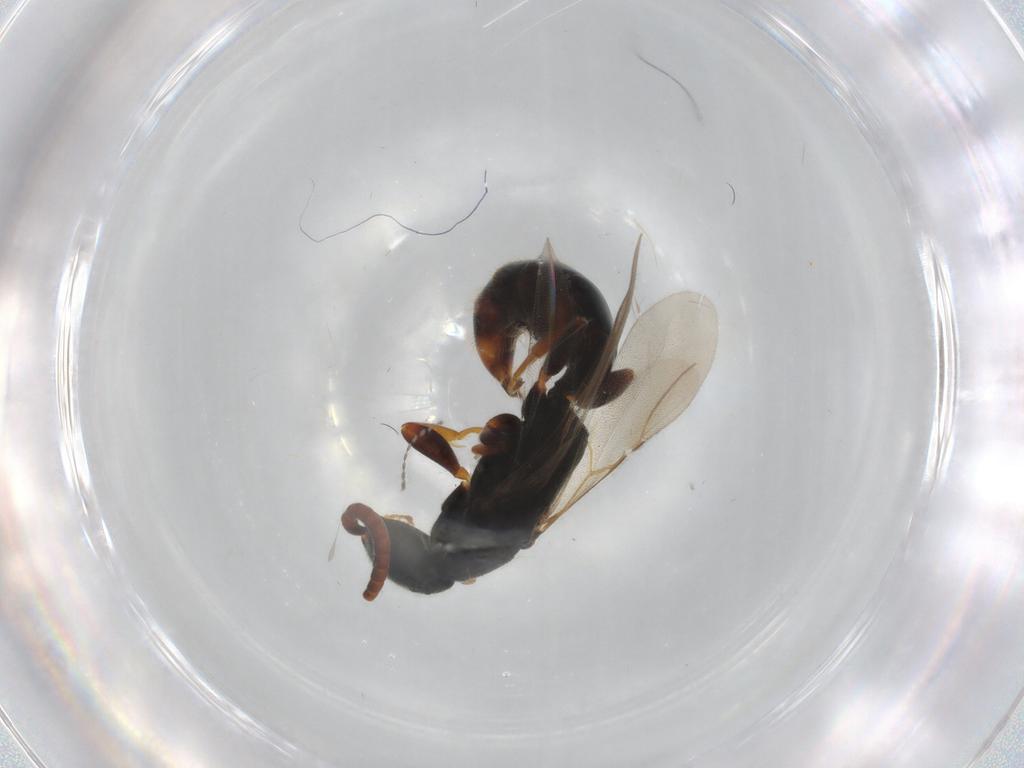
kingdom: Animalia
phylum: Arthropoda
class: Insecta
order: Hymenoptera
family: Bethylidae
